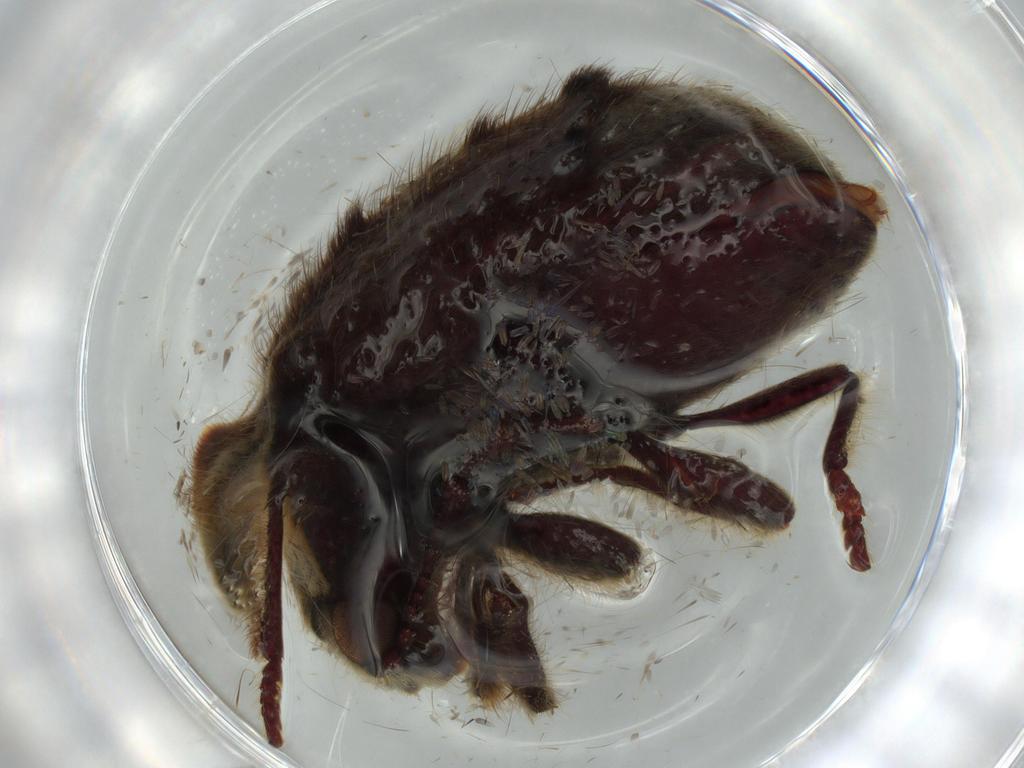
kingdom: Animalia
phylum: Arthropoda
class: Insecta
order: Coleoptera
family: Ptinidae
